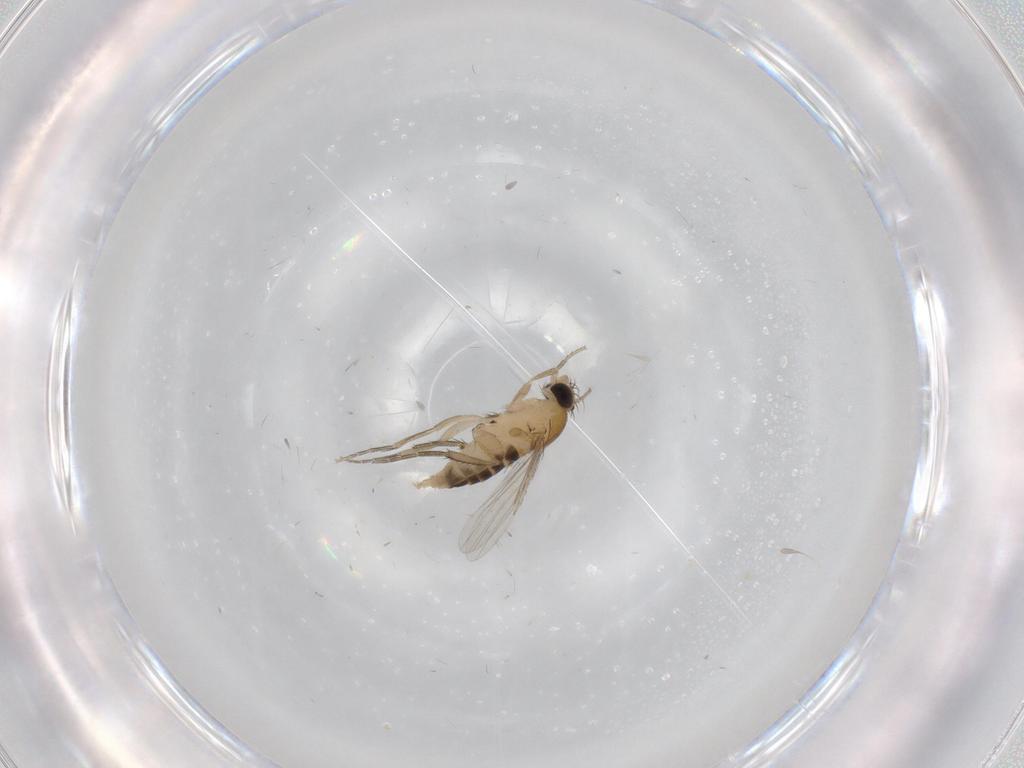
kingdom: Animalia
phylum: Arthropoda
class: Insecta
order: Diptera
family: Phoridae
